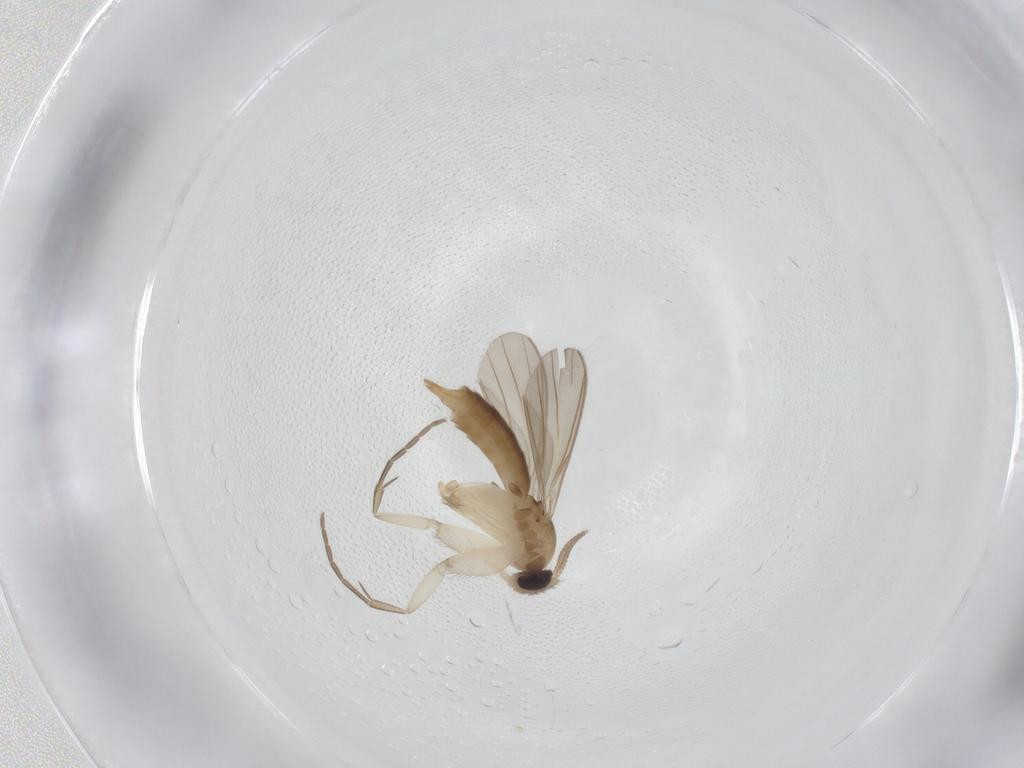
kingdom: Animalia
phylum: Arthropoda
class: Insecta
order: Diptera
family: Mycetophilidae
